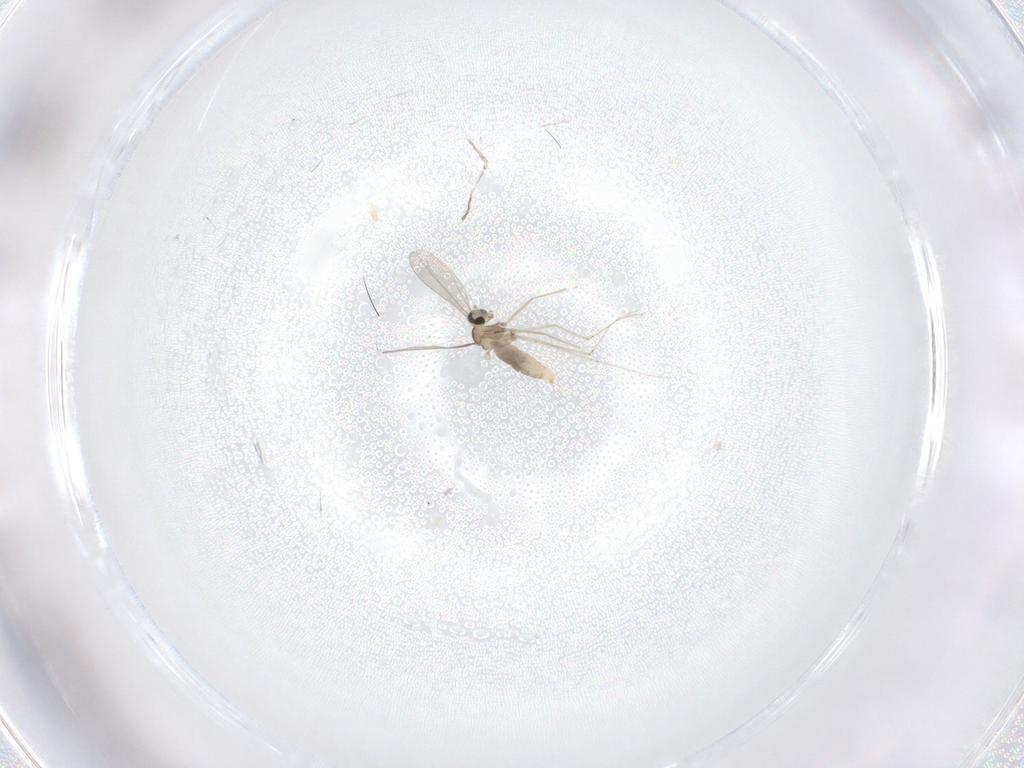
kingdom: Animalia
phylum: Arthropoda
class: Insecta
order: Diptera
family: Cecidomyiidae
